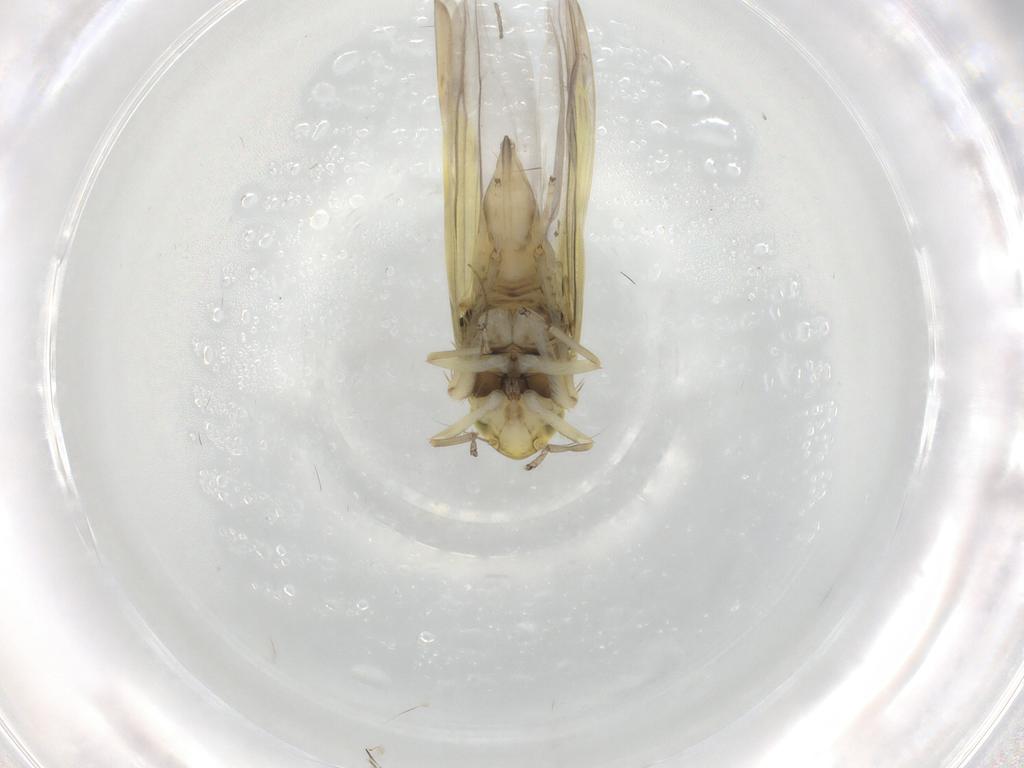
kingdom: Animalia
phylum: Arthropoda
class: Insecta
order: Hemiptera
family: Cicadellidae
